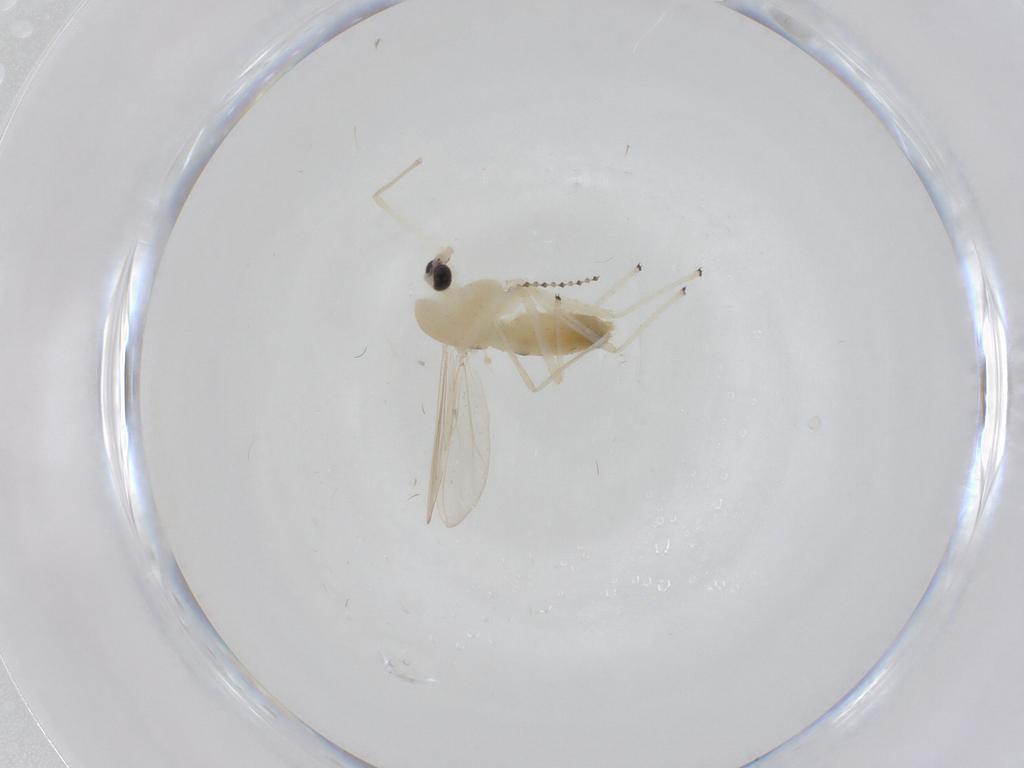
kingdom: Animalia
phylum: Arthropoda
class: Insecta
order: Diptera
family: Chironomidae
